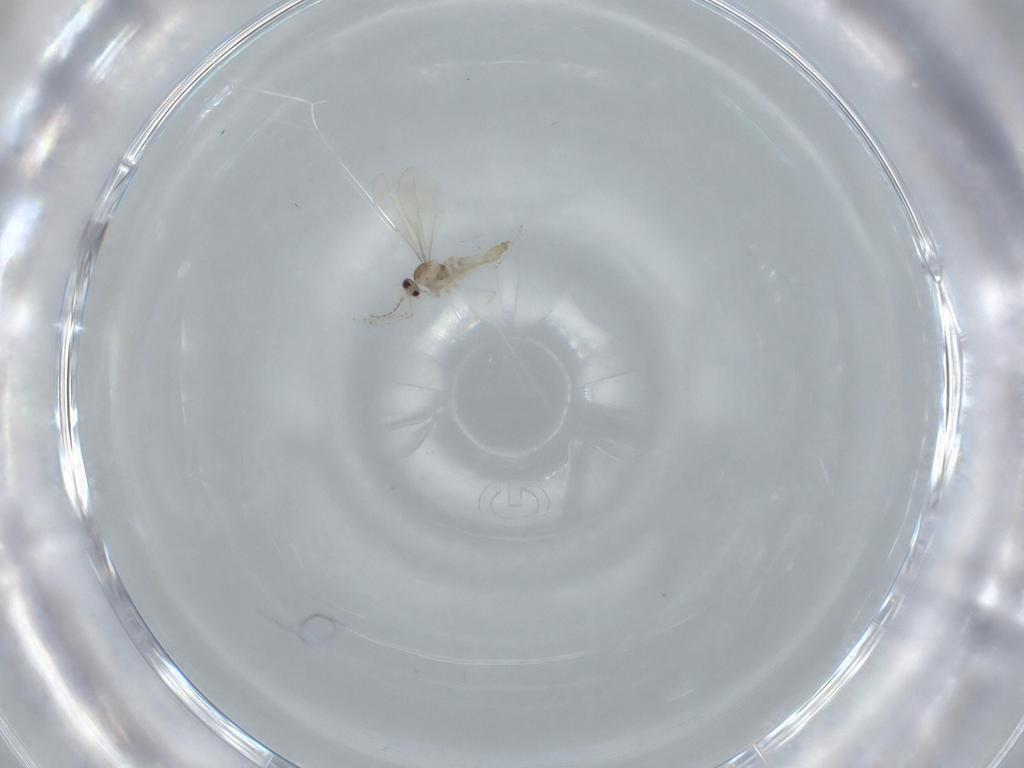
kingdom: Animalia
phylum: Arthropoda
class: Insecta
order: Diptera
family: Cecidomyiidae
